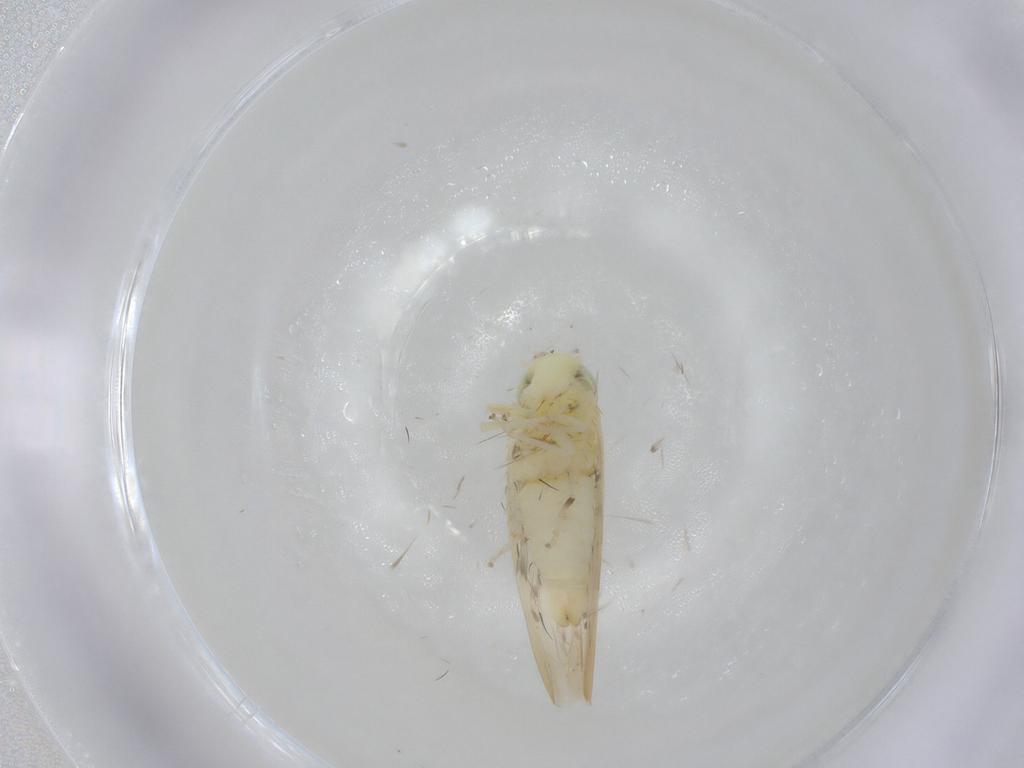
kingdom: Animalia
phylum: Arthropoda
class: Insecta
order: Hemiptera
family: Cicadellidae
